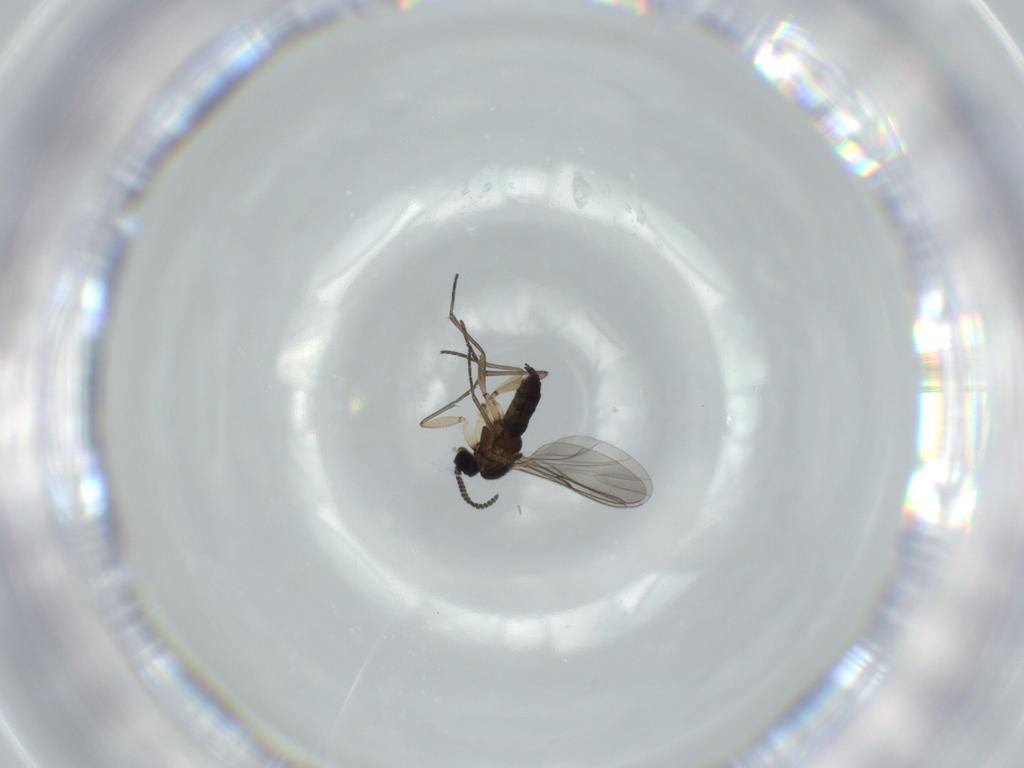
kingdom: Animalia
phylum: Arthropoda
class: Insecta
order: Diptera
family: Sciaridae
